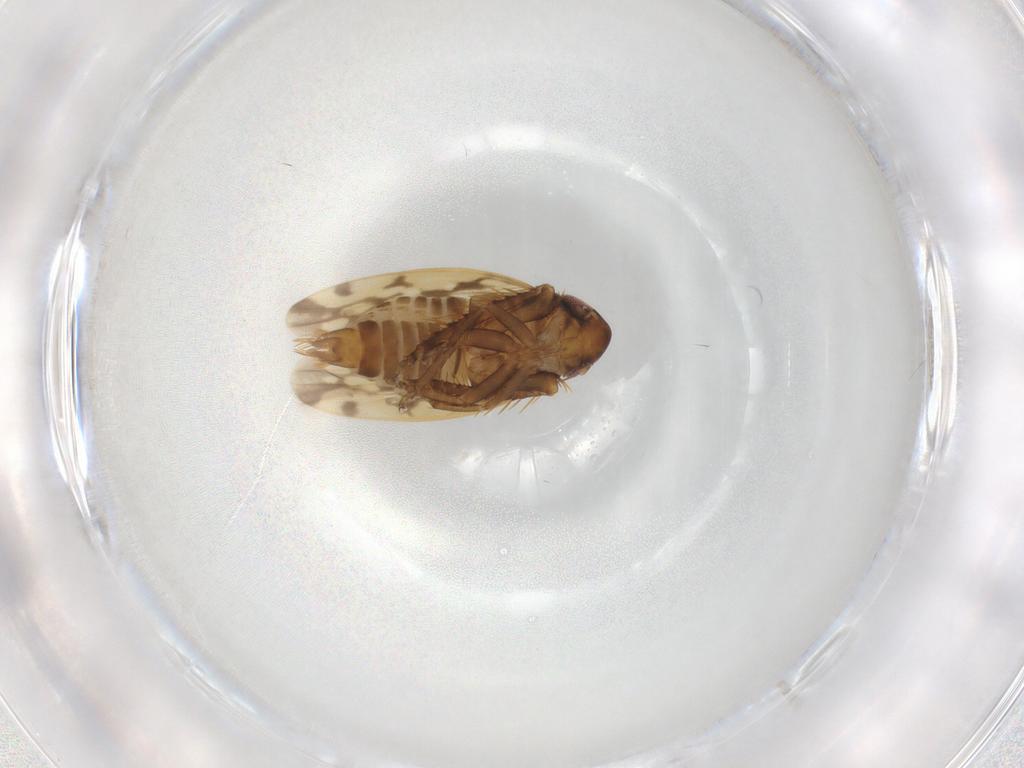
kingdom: Animalia
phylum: Arthropoda
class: Insecta
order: Hemiptera
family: Cicadellidae
